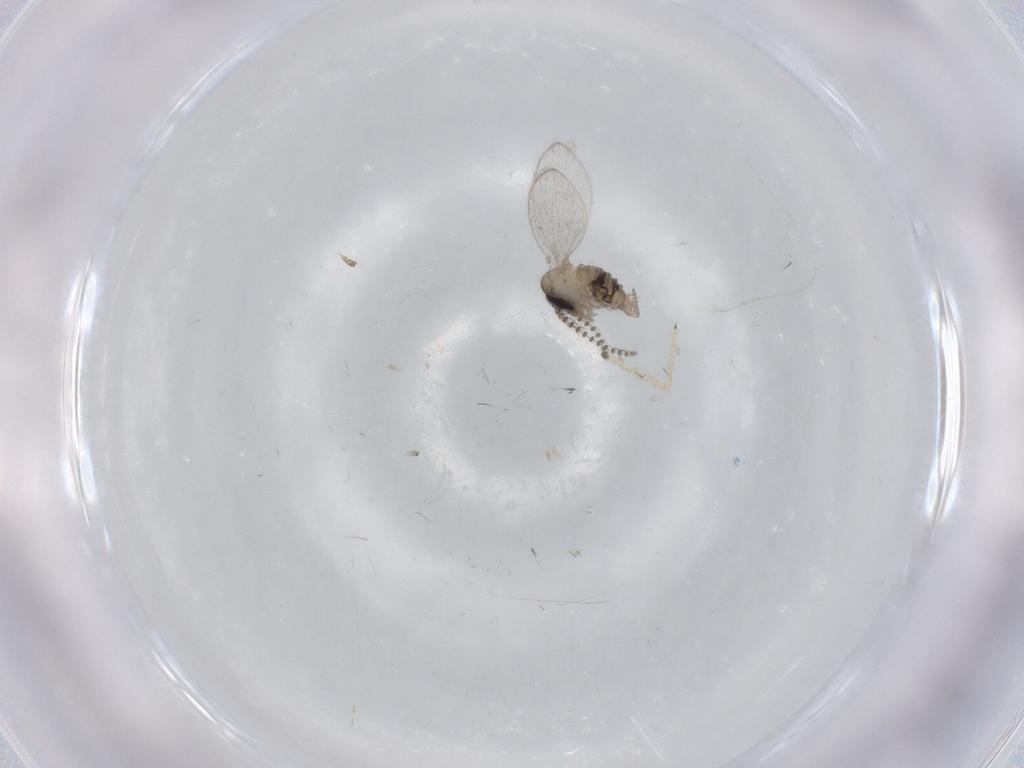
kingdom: Animalia
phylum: Arthropoda
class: Insecta
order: Diptera
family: Psychodidae
